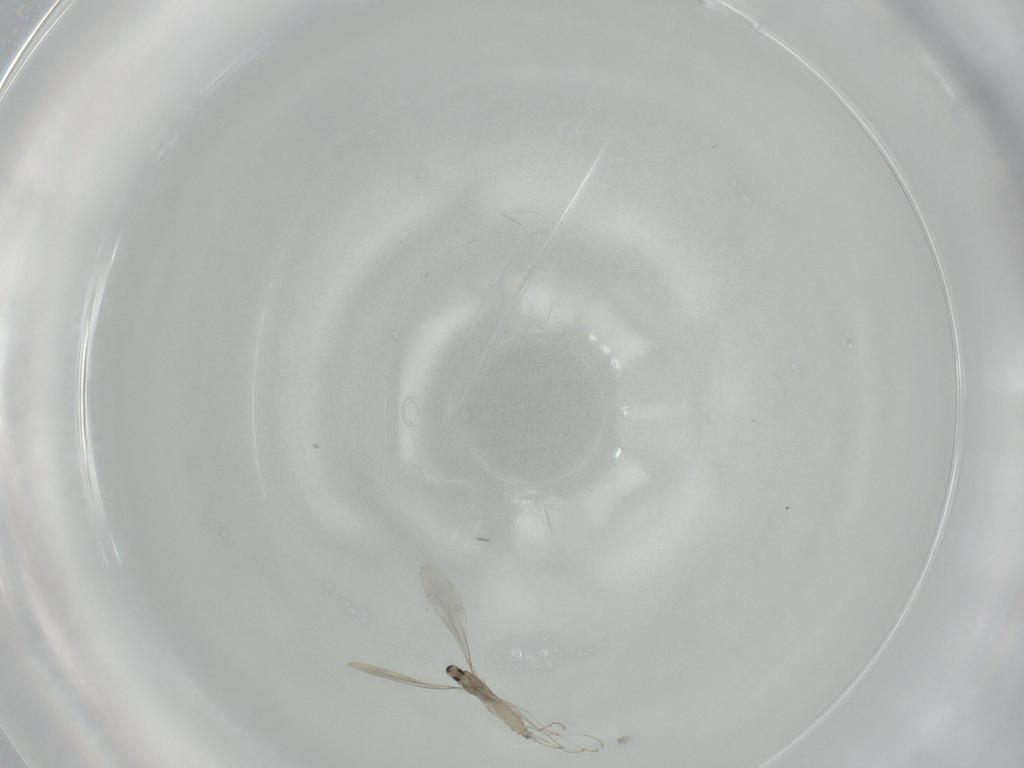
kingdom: Animalia
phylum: Arthropoda
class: Insecta
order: Diptera
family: Cecidomyiidae
